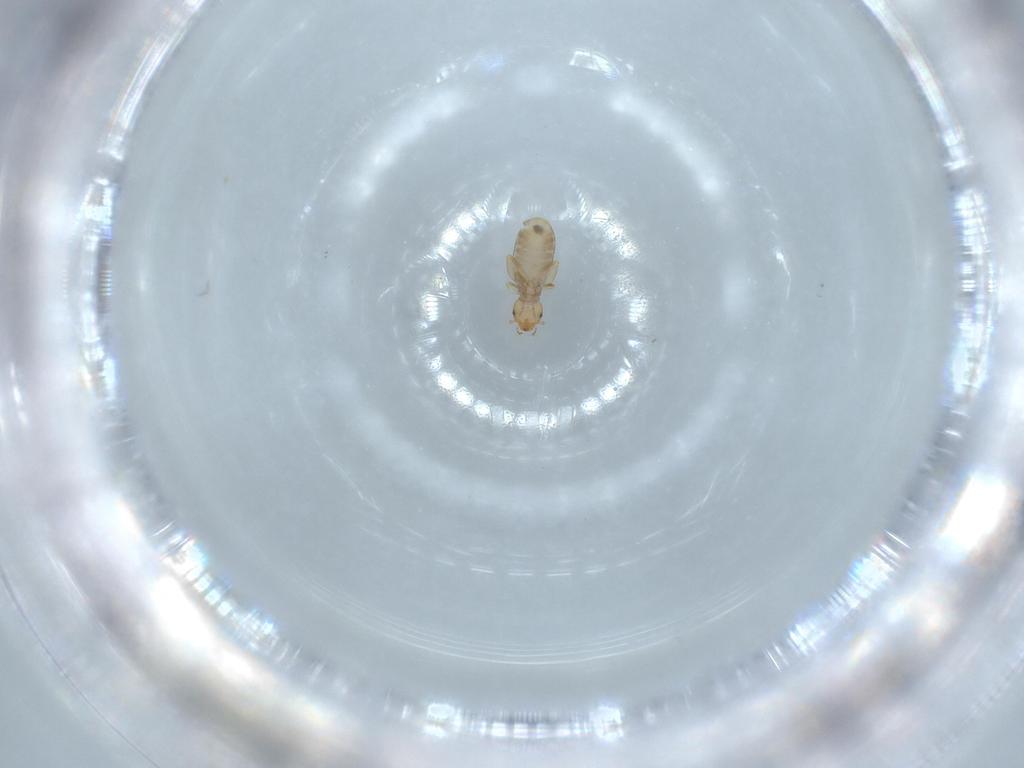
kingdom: Animalia
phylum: Arthropoda
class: Insecta
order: Psocodea
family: Liposcelididae
